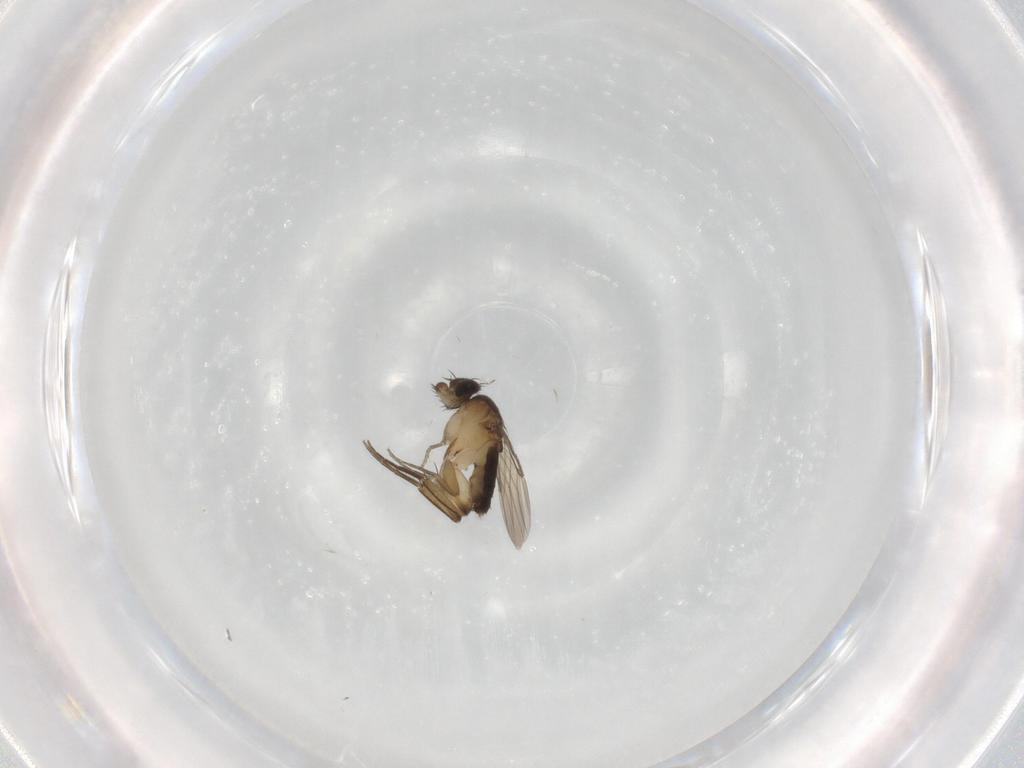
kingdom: Animalia
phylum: Arthropoda
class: Insecta
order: Diptera
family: Phoridae
